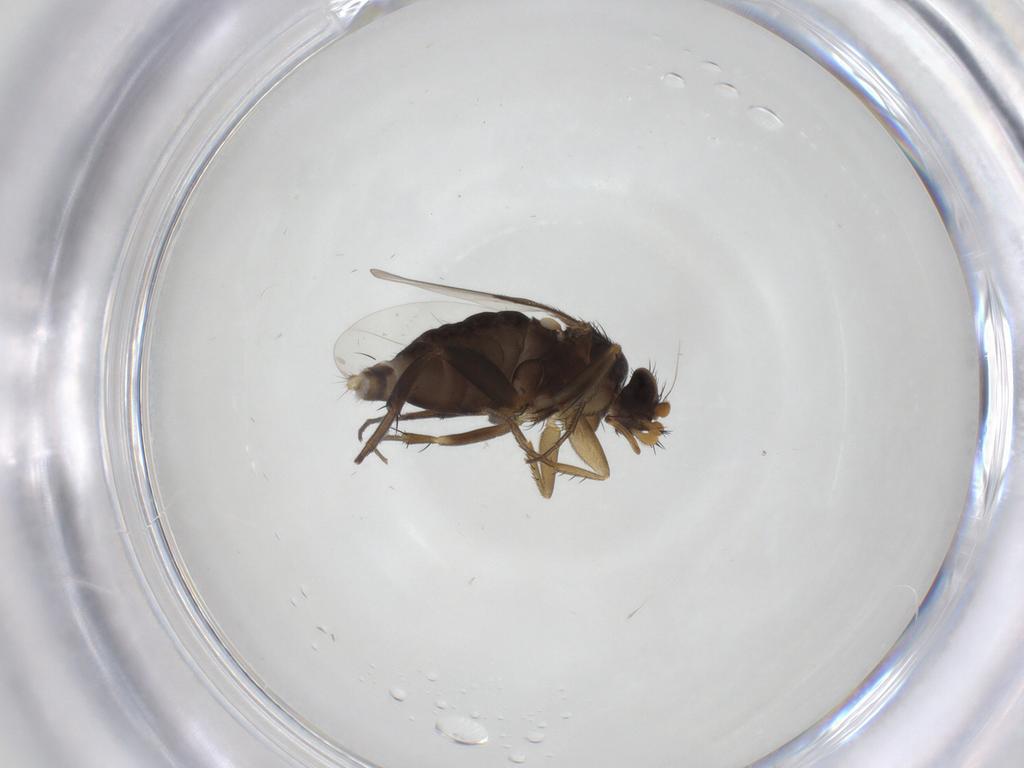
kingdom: Animalia
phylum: Arthropoda
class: Insecta
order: Diptera
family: Phoridae
